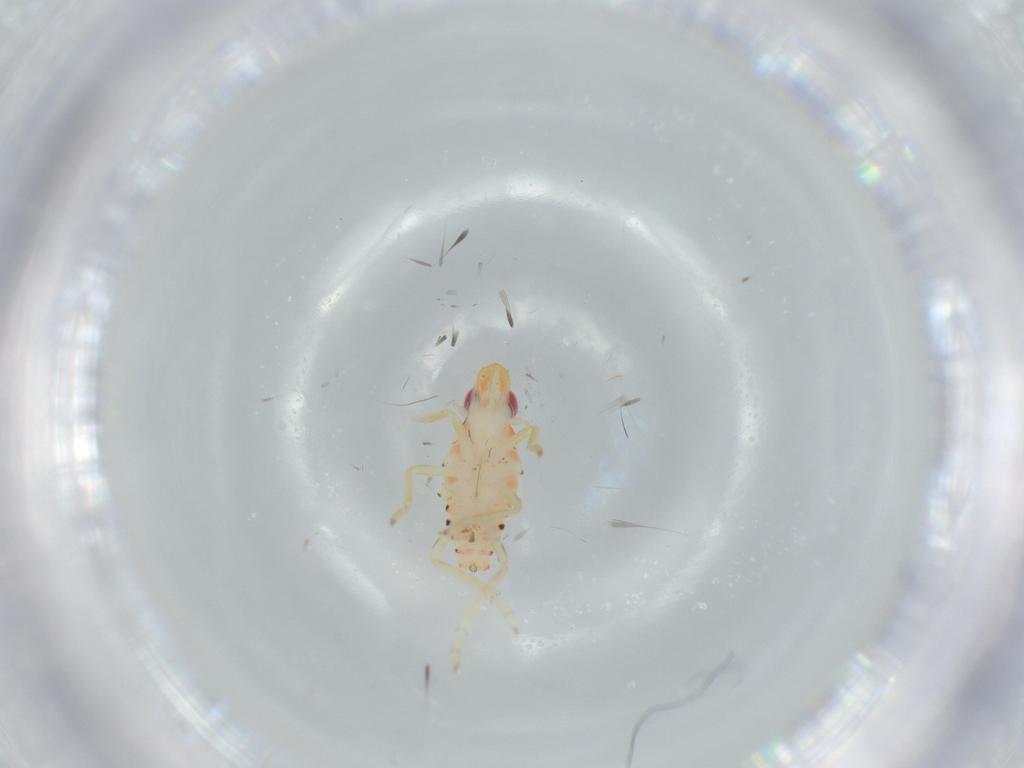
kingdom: Animalia
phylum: Arthropoda
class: Insecta
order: Hemiptera
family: Tropiduchidae
